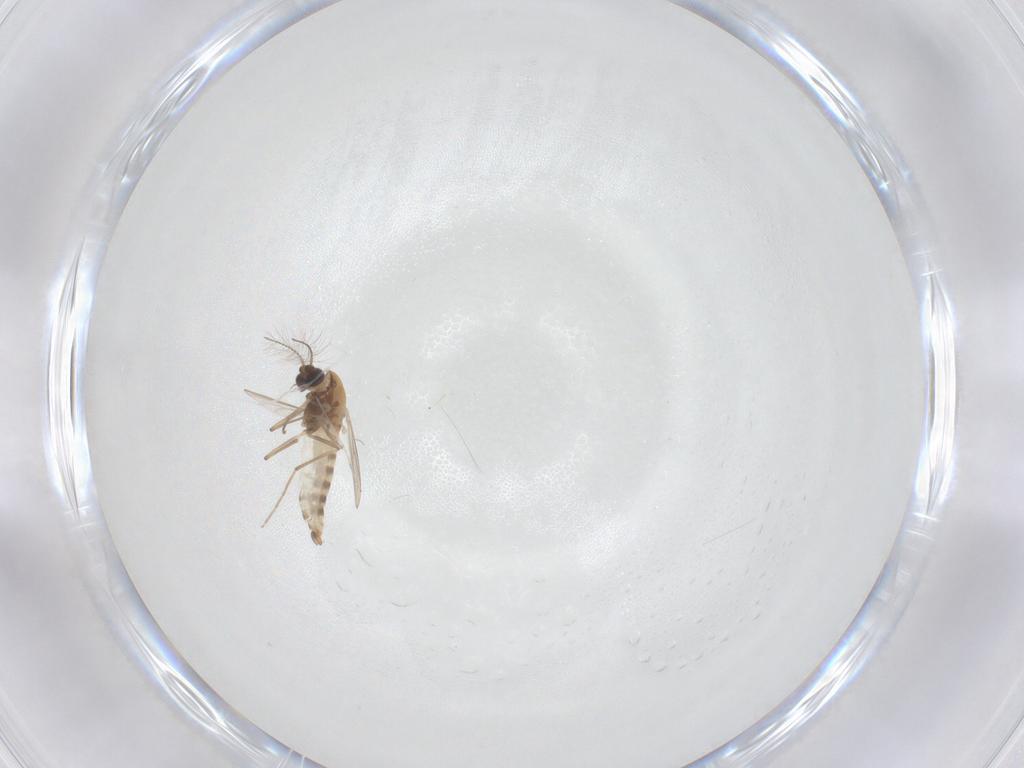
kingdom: Animalia
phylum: Arthropoda
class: Insecta
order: Diptera
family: Chironomidae
